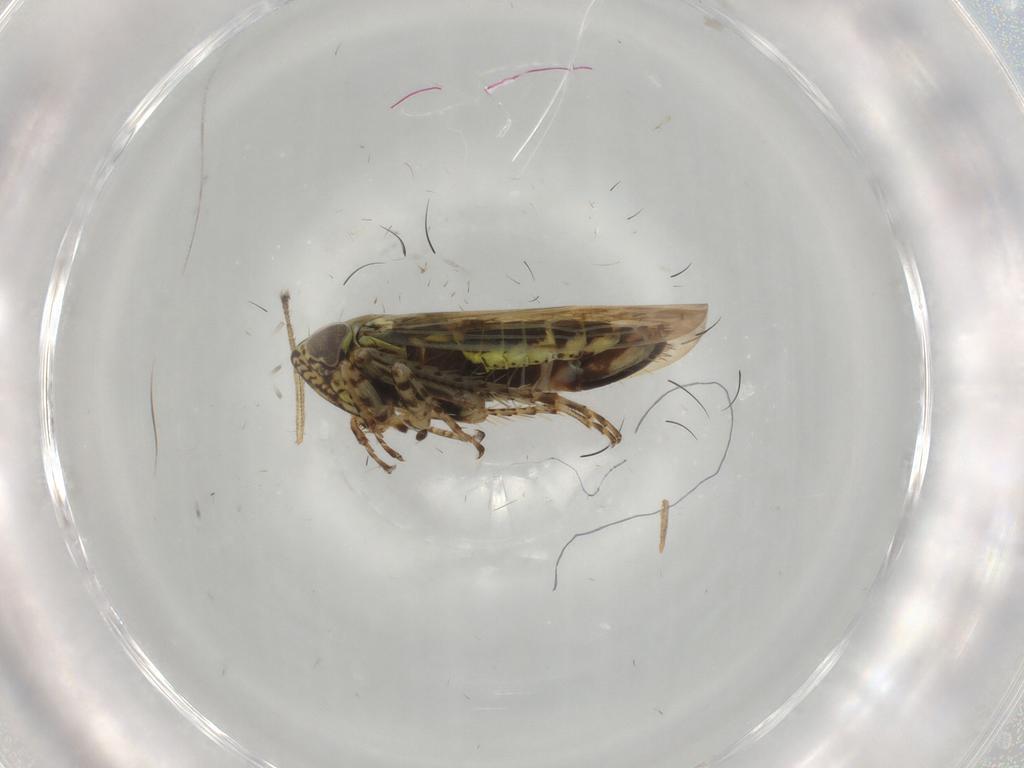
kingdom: Animalia
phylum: Arthropoda
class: Insecta
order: Hemiptera
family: Cicadellidae
